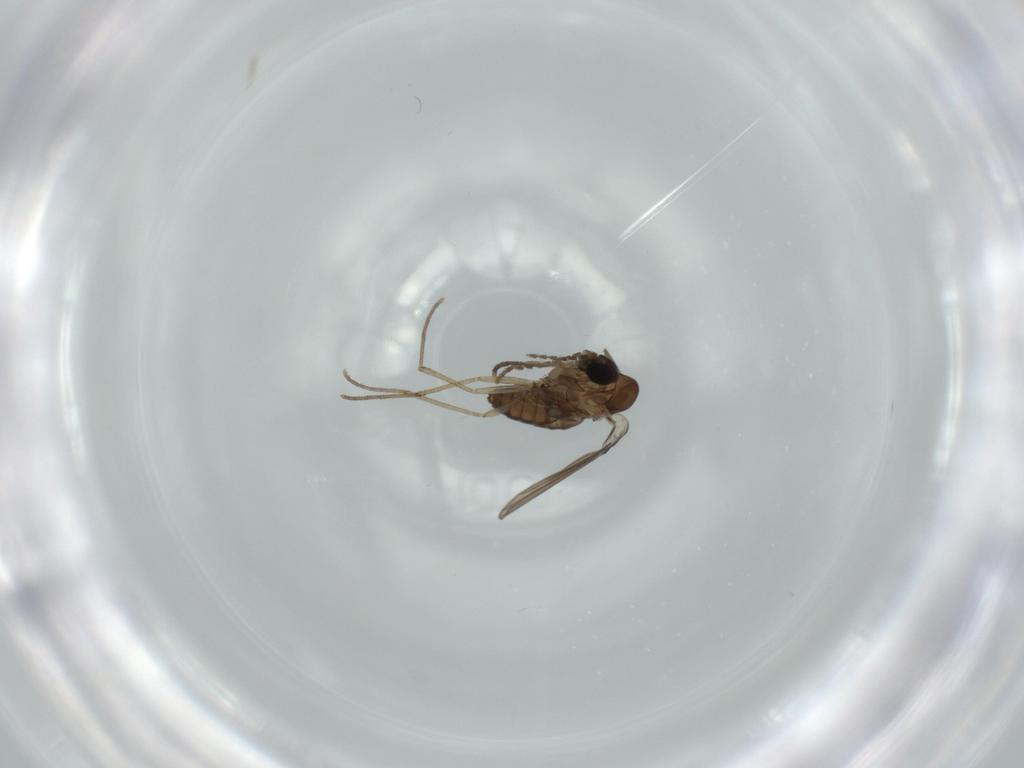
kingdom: Animalia
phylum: Arthropoda
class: Insecta
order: Diptera
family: Psychodidae
